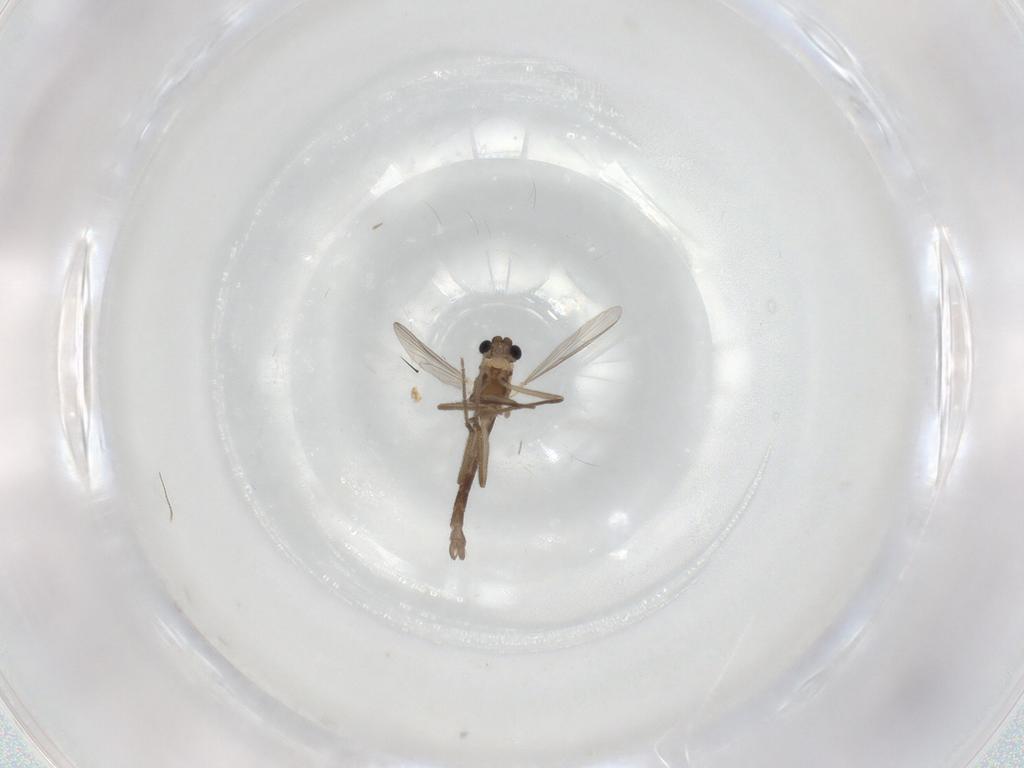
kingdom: Animalia
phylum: Arthropoda
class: Insecta
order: Diptera
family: Chironomidae
